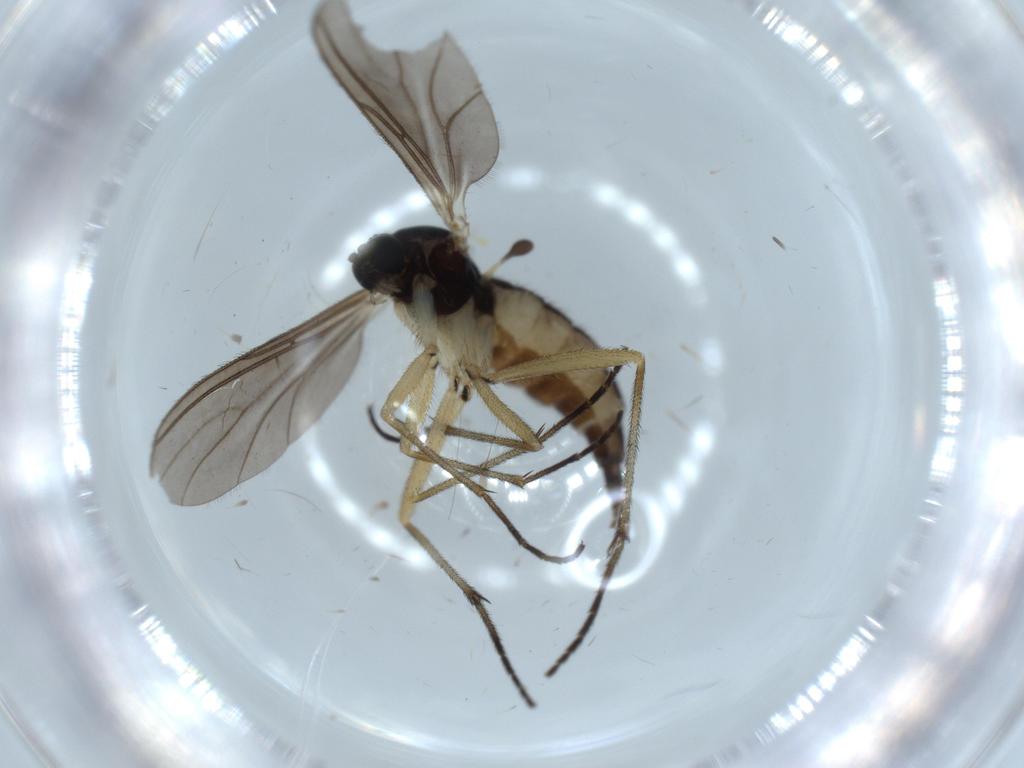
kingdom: Animalia
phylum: Arthropoda
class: Insecta
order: Diptera
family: Sciaridae
